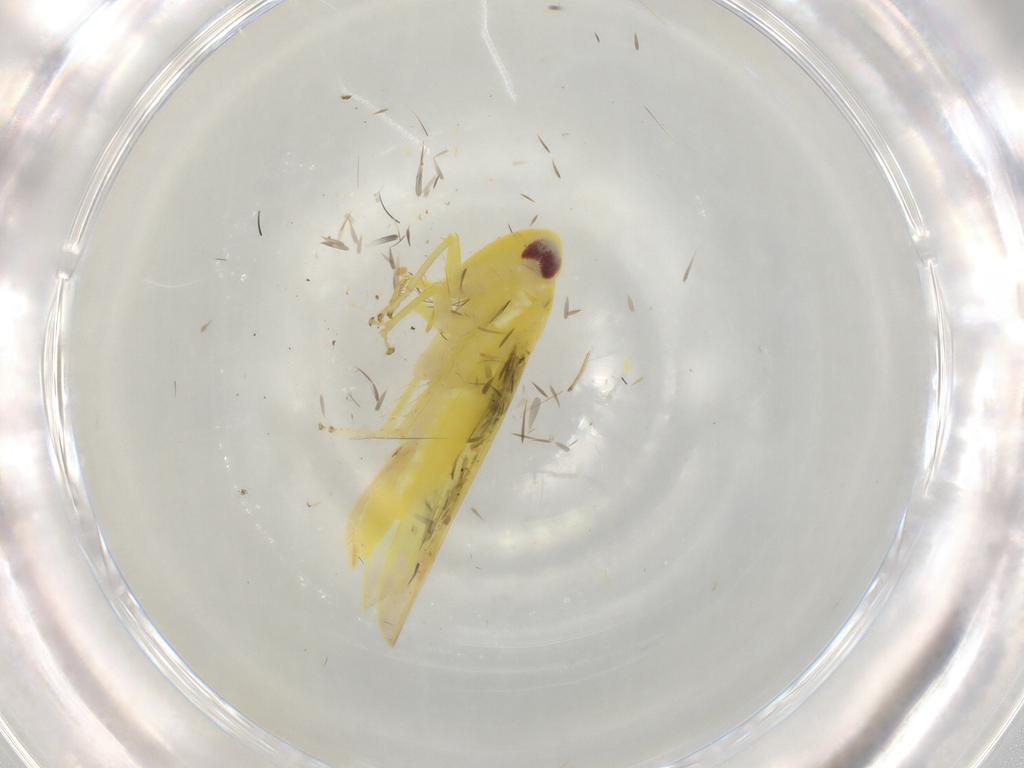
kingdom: Animalia
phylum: Arthropoda
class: Insecta
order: Hemiptera
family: Cicadellidae
